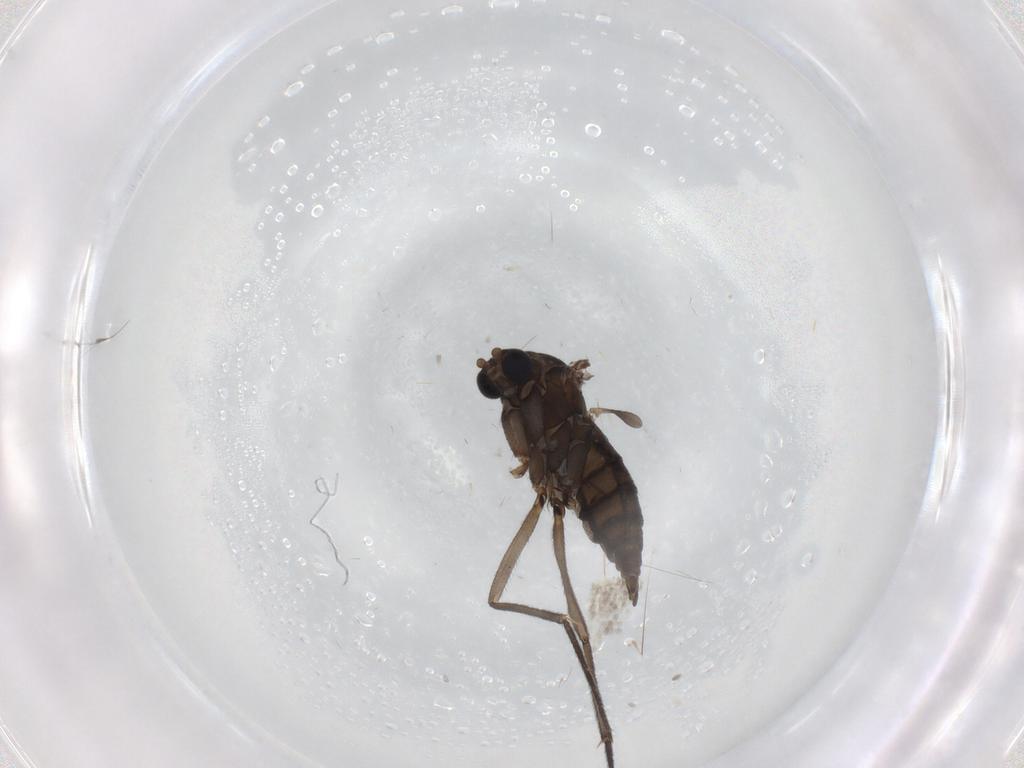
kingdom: Animalia
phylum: Arthropoda
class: Insecta
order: Diptera
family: Sciaridae
